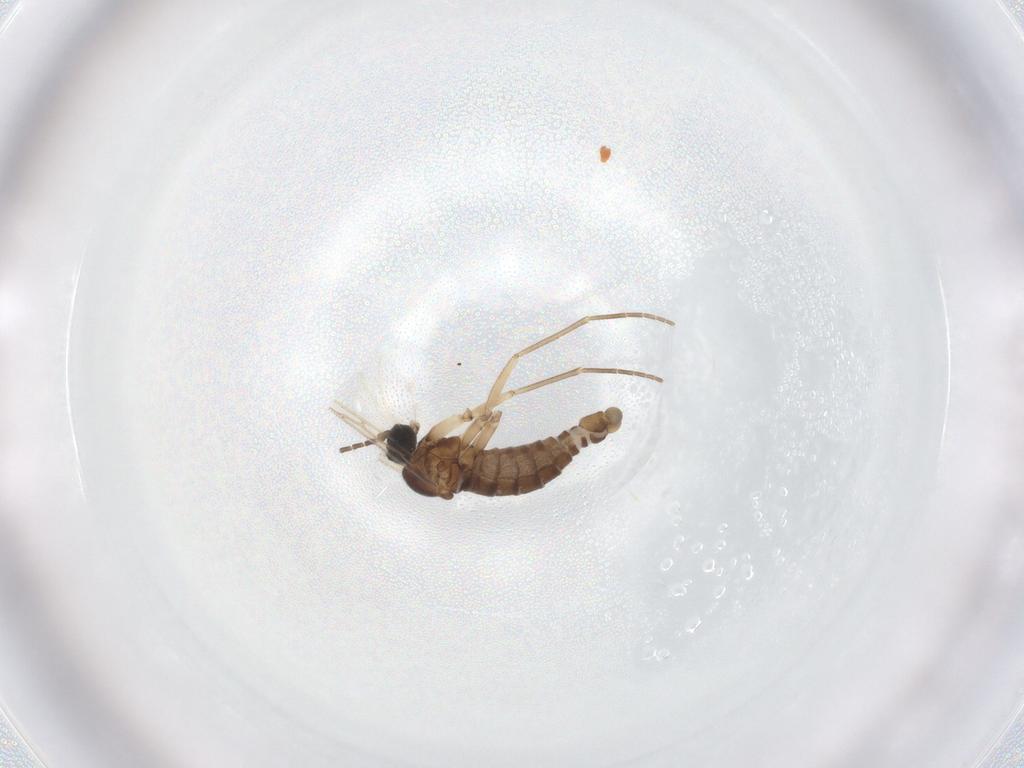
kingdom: Animalia
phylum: Arthropoda
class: Insecta
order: Diptera
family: Sciaridae
